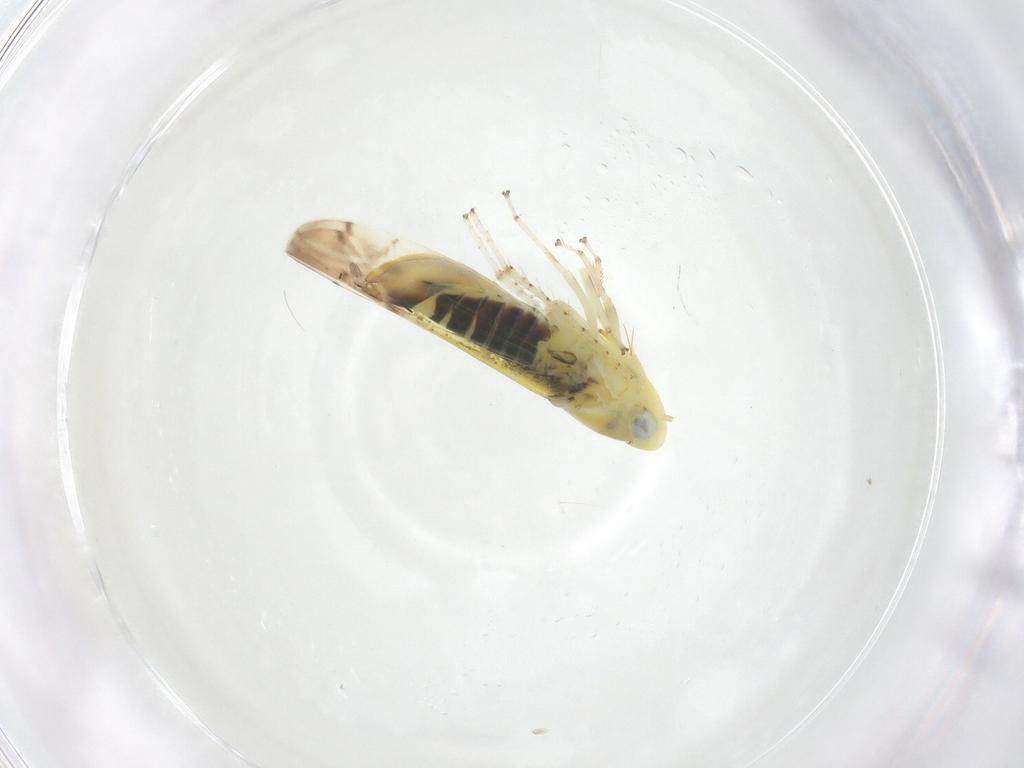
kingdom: Animalia
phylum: Arthropoda
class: Insecta
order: Hemiptera
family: Cicadellidae
